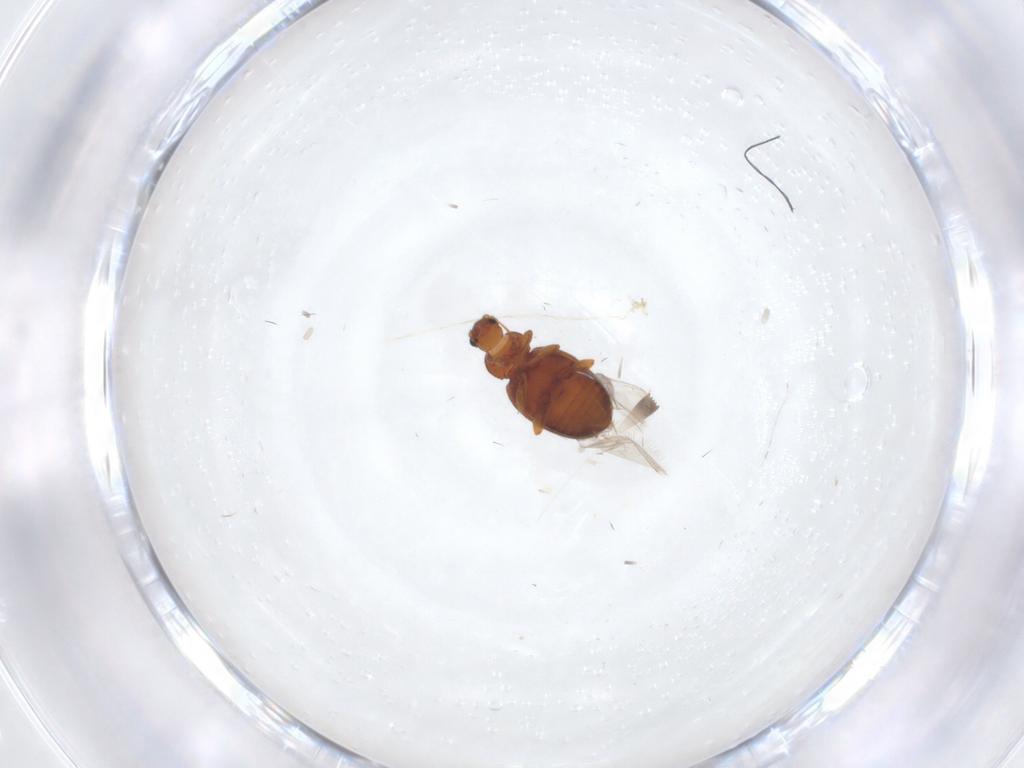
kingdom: Animalia
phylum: Arthropoda
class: Insecta
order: Coleoptera
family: Latridiidae
